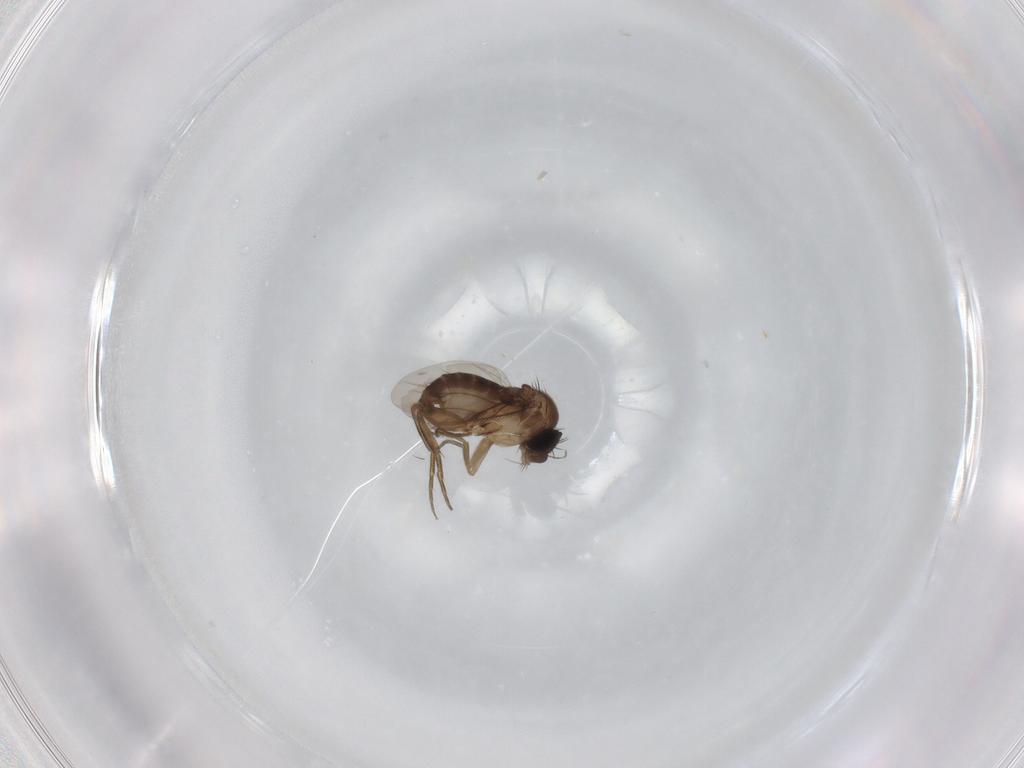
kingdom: Animalia
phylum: Arthropoda
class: Insecta
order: Diptera
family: Phoridae
